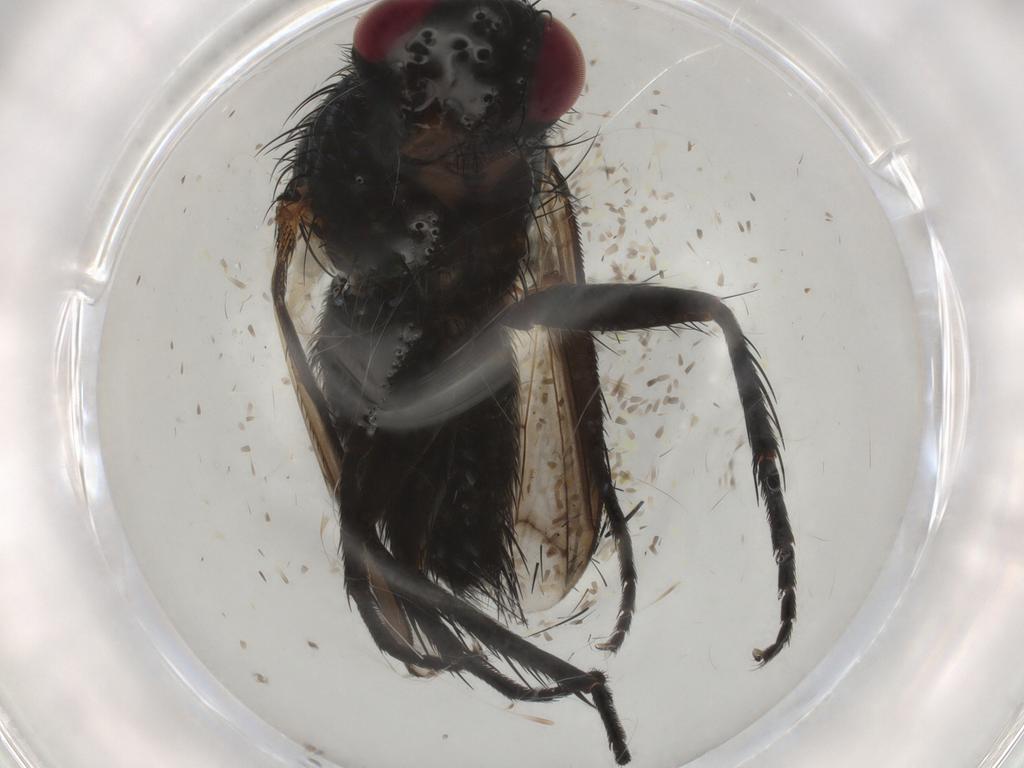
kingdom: Animalia
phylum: Arthropoda
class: Insecta
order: Diptera
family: Tachinidae
